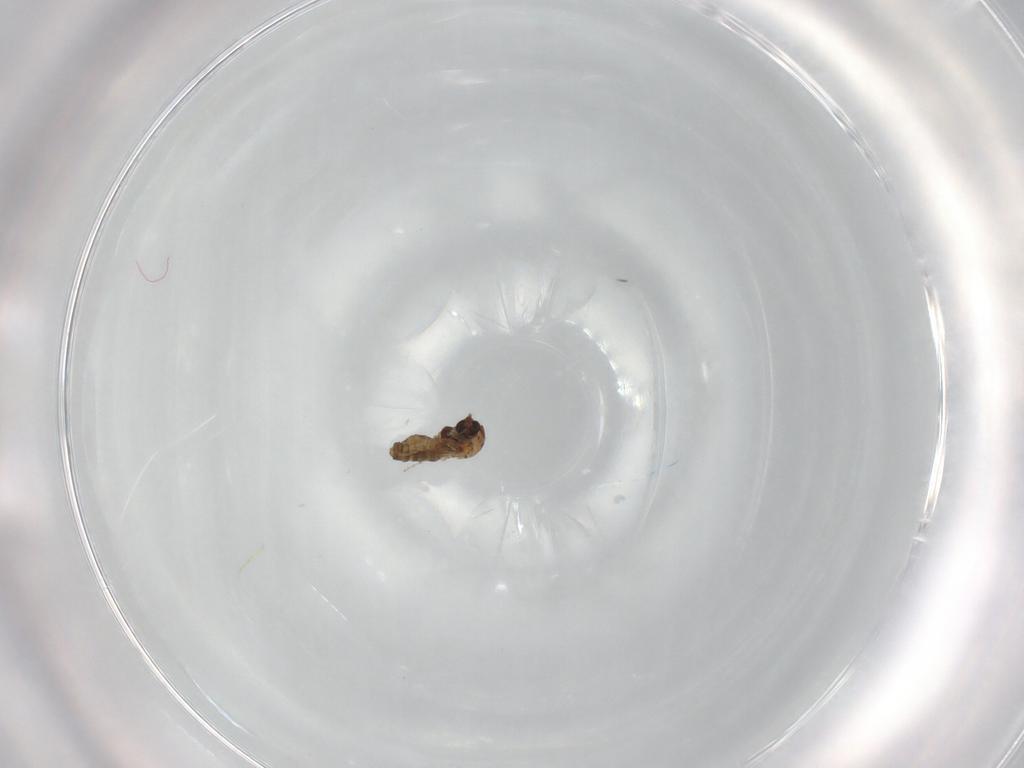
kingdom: Animalia
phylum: Arthropoda
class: Insecta
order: Diptera
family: Ceratopogonidae
